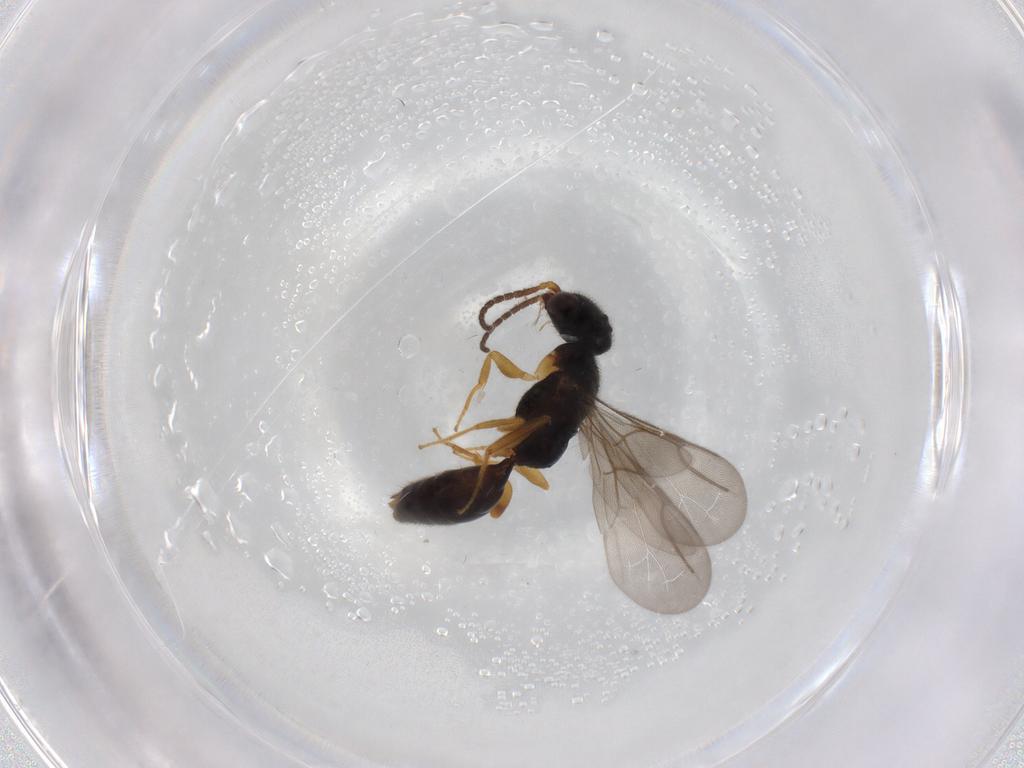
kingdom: Animalia
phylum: Arthropoda
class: Insecta
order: Hymenoptera
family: Bethylidae
